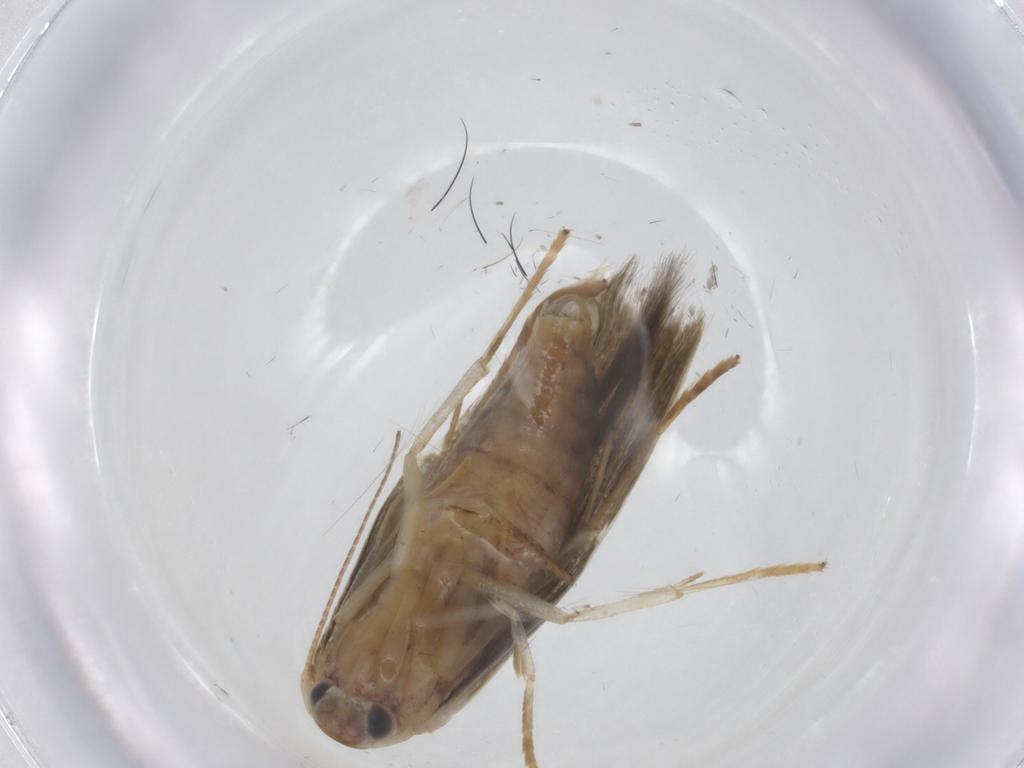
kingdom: Animalia
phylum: Arthropoda
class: Insecta
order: Lepidoptera
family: Stathmopodidae
